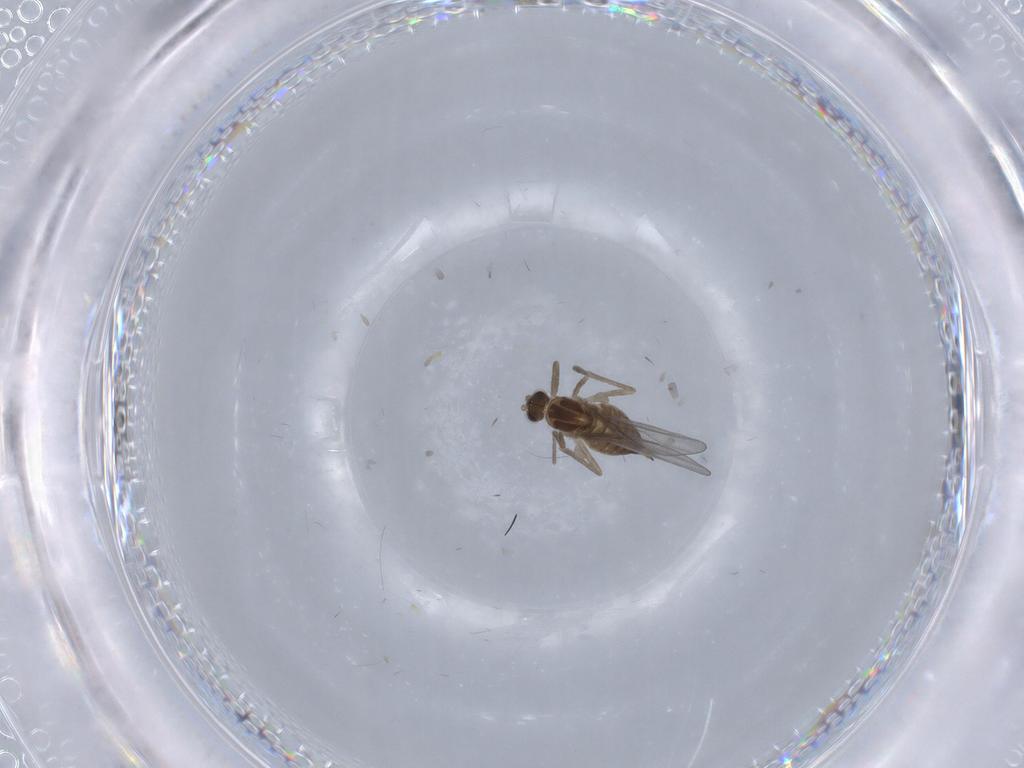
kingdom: Animalia
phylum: Arthropoda
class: Insecta
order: Diptera
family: Cecidomyiidae
